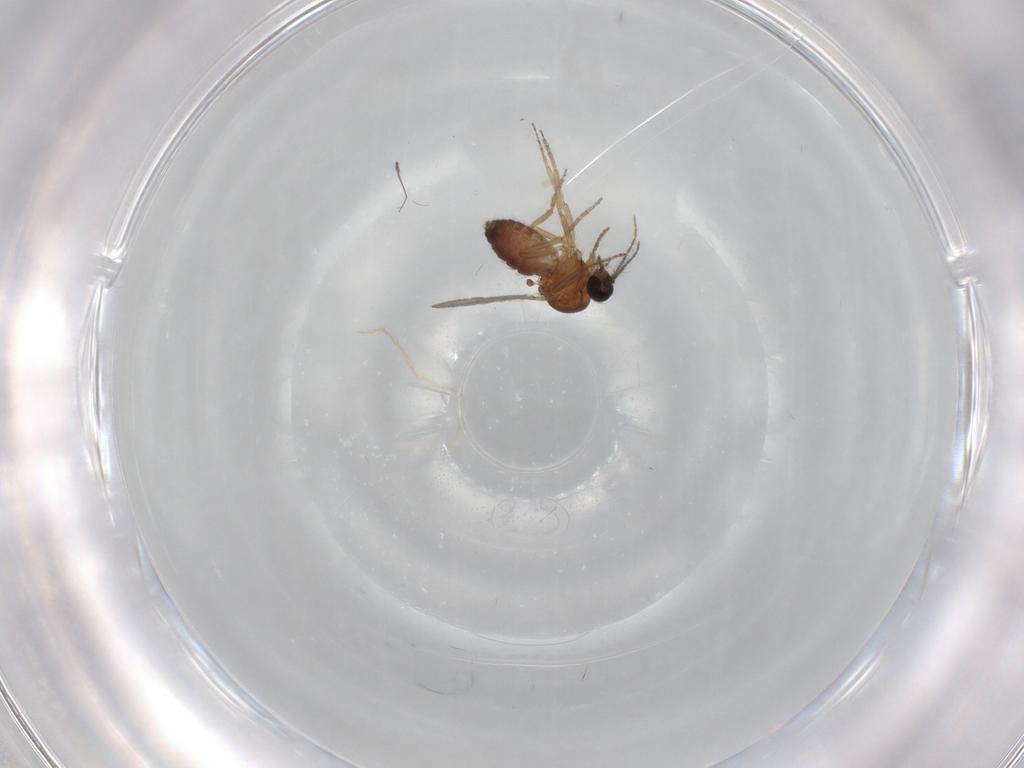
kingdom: Animalia
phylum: Arthropoda
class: Insecta
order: Diptera
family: Ceratopogonidae
